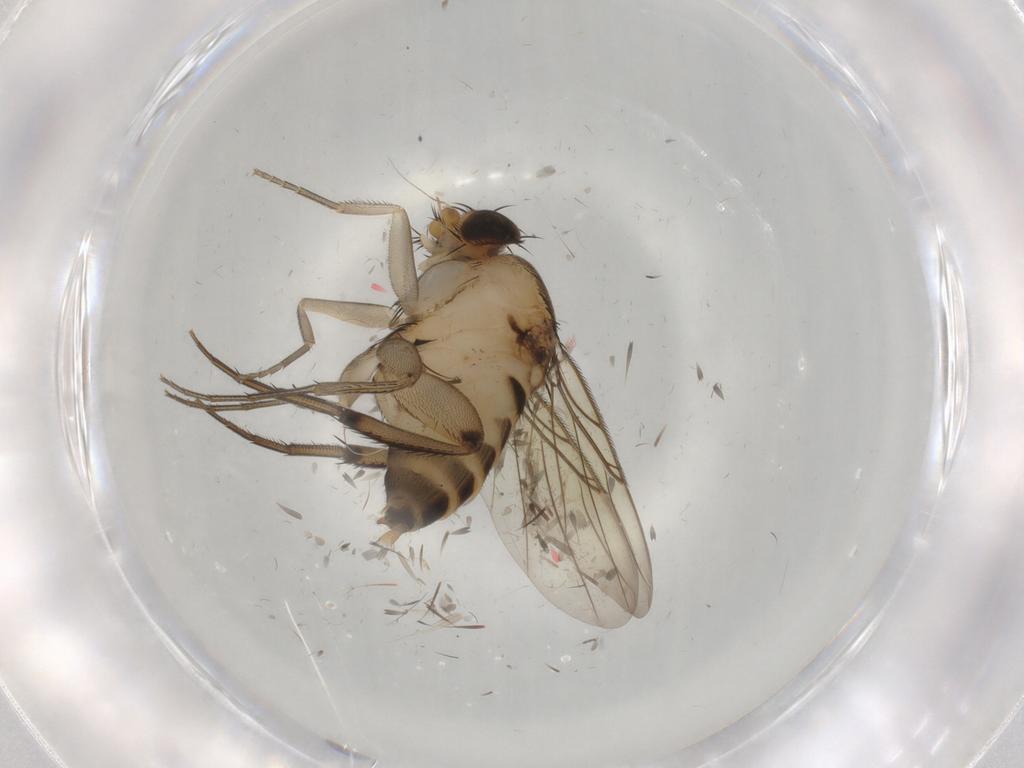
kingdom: Animalia
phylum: Arthropoda
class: Insecta
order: Diptera
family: Phoridae
